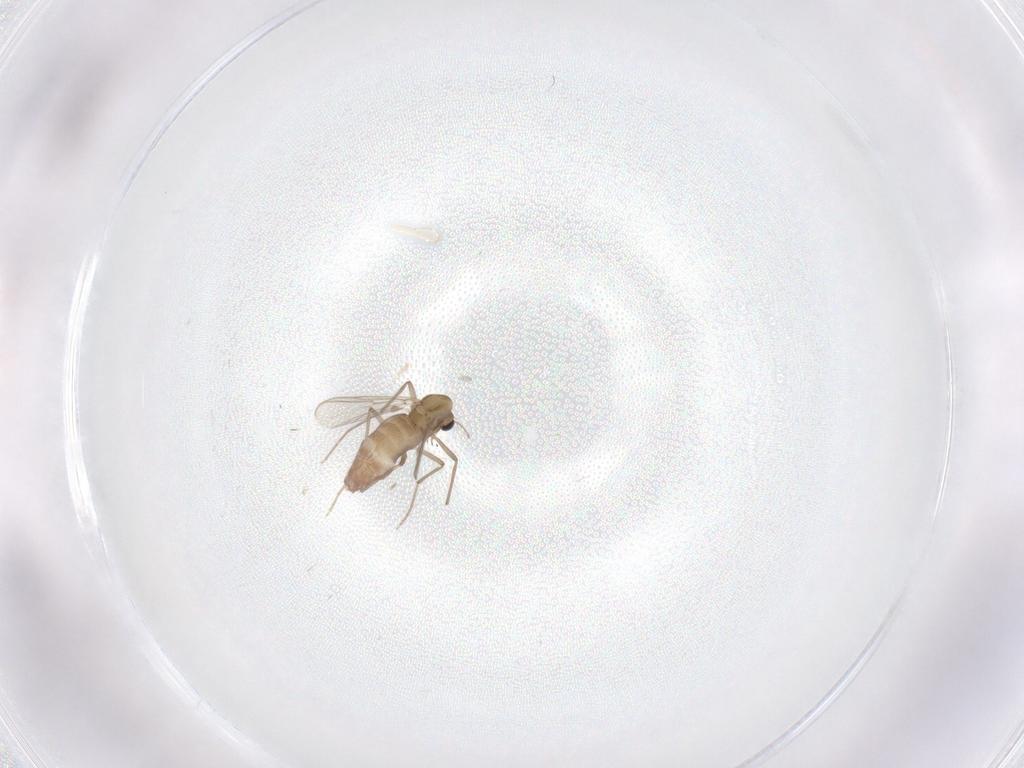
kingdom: Animalia
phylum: Arthropoda
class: Insecta
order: Diptera
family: Chironomidae
